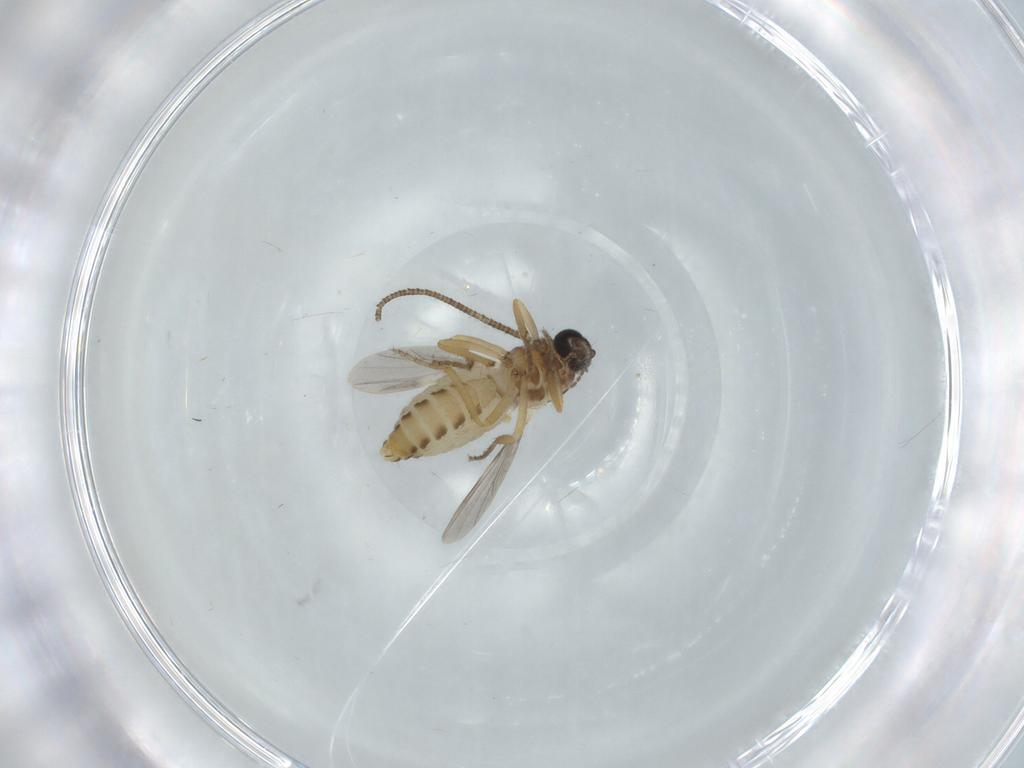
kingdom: Animalia
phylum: Arthropoda
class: Insecta
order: Diptera
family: Ceratopogonidae
